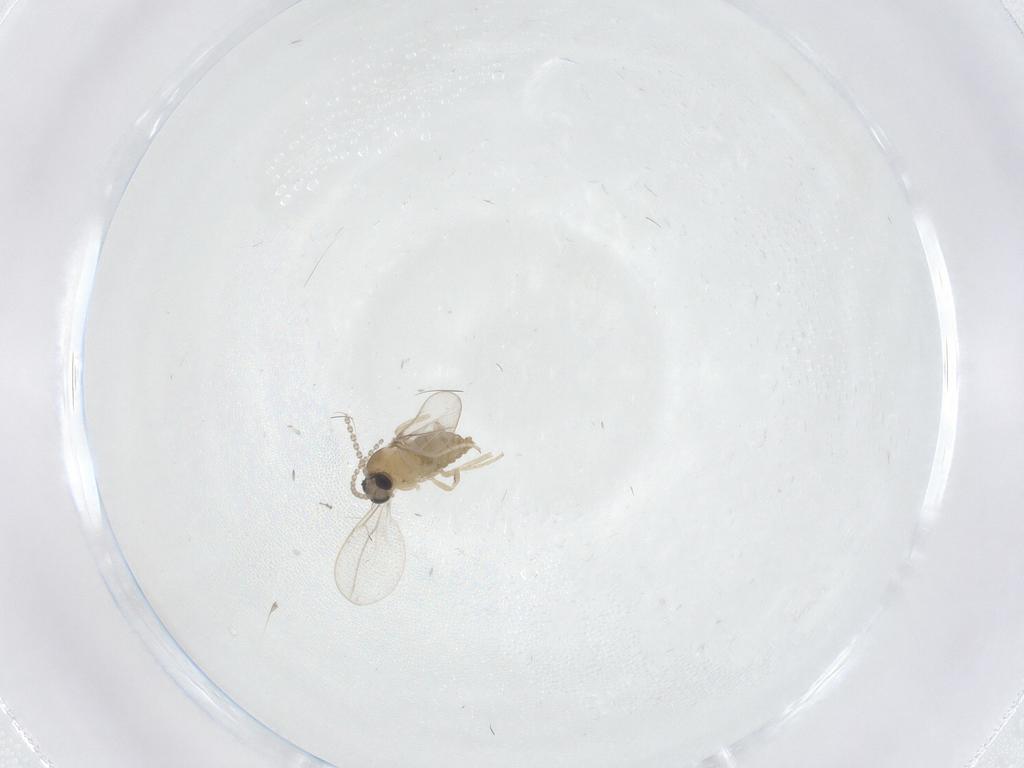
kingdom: Animalia
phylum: Arthropoda
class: Insecta
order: Diptera
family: Cecidomyiidae
